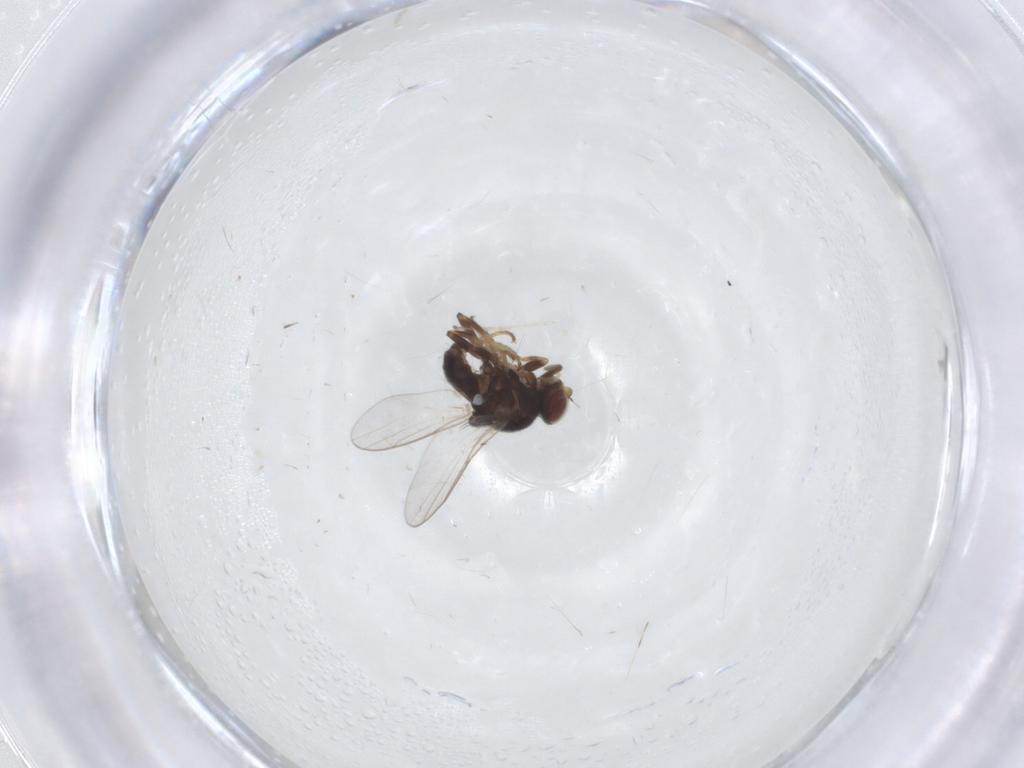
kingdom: Animalia
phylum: Arthropoda
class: Insecta
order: Diptera
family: Chloropidae
